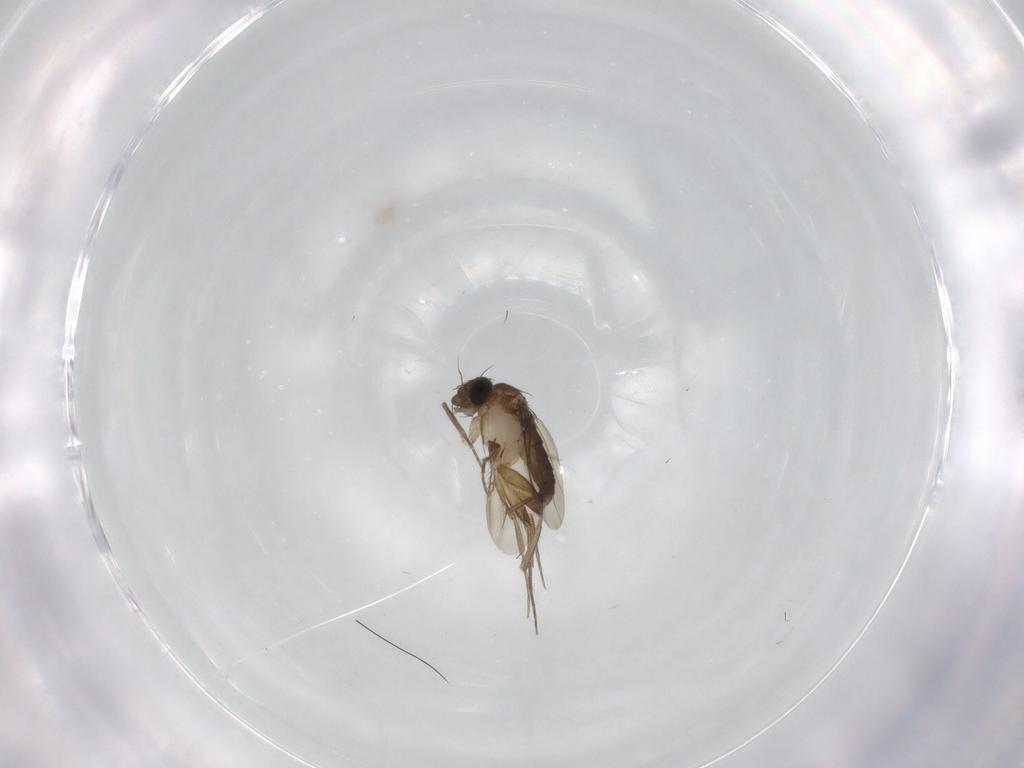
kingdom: Animalia
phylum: Arthropoda
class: Insecta
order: Diptera
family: Phoridae
